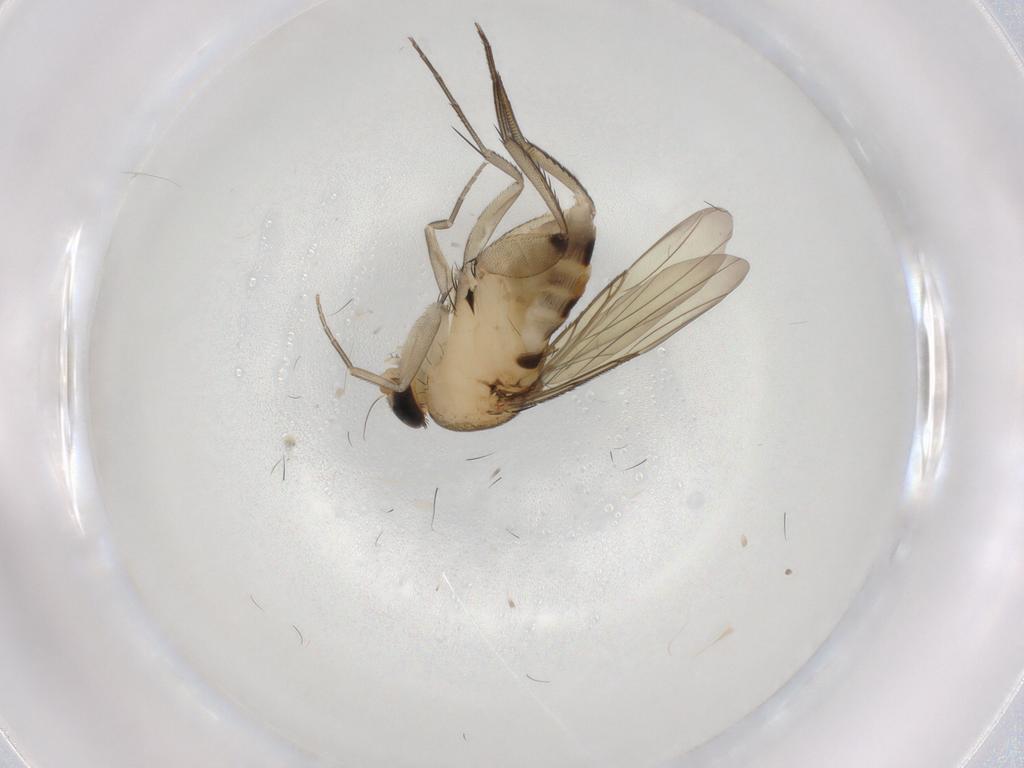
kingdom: Animalia
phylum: Arthropoda
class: Insecta
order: Diptera
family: Phoridae
